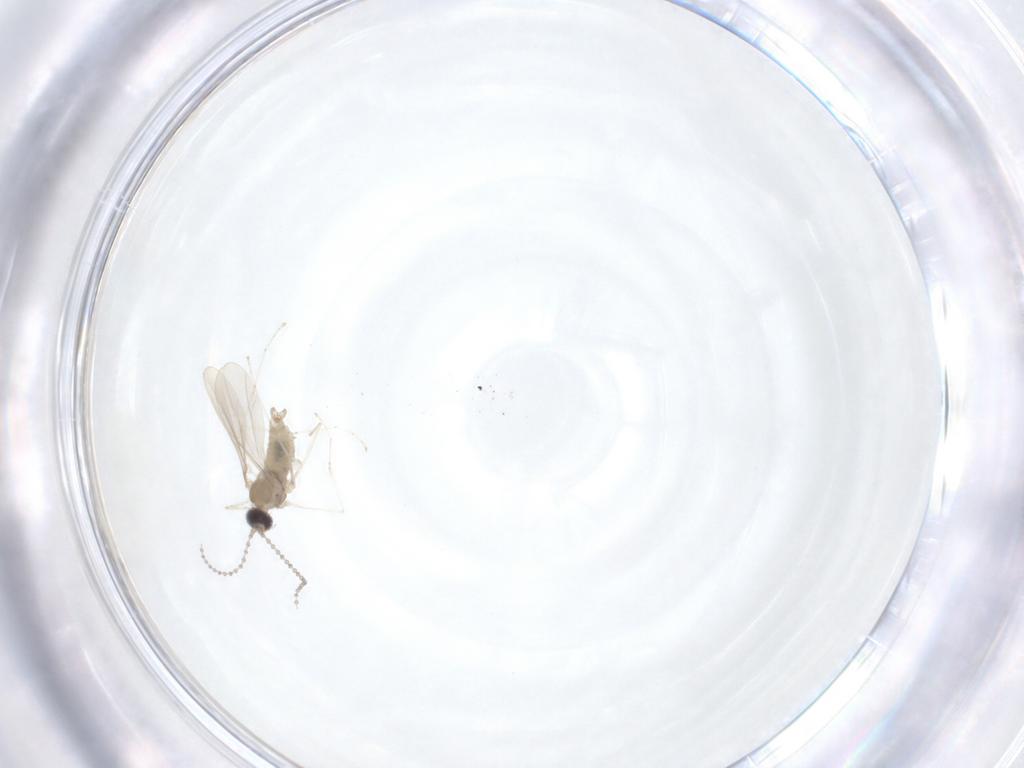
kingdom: Animalia
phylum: Arthropoda
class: Insecta
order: Diptera
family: Cecidomyiidae
